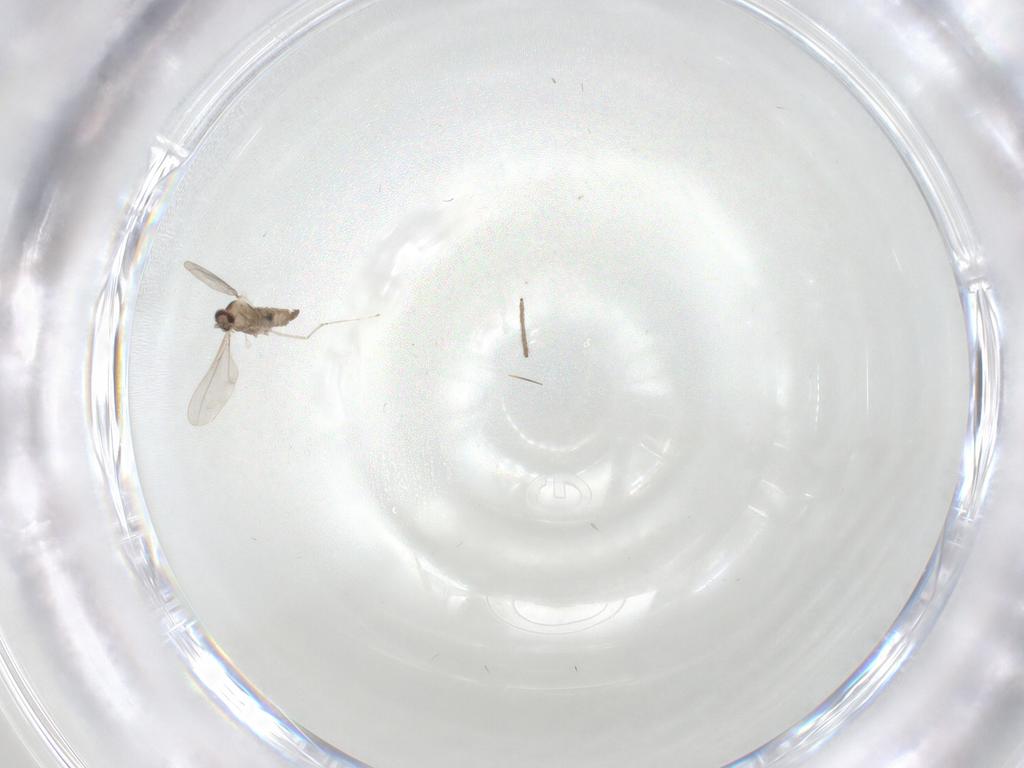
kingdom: Animalia
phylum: Arthropoda
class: Insecta
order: Diptera
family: Chironomidae
